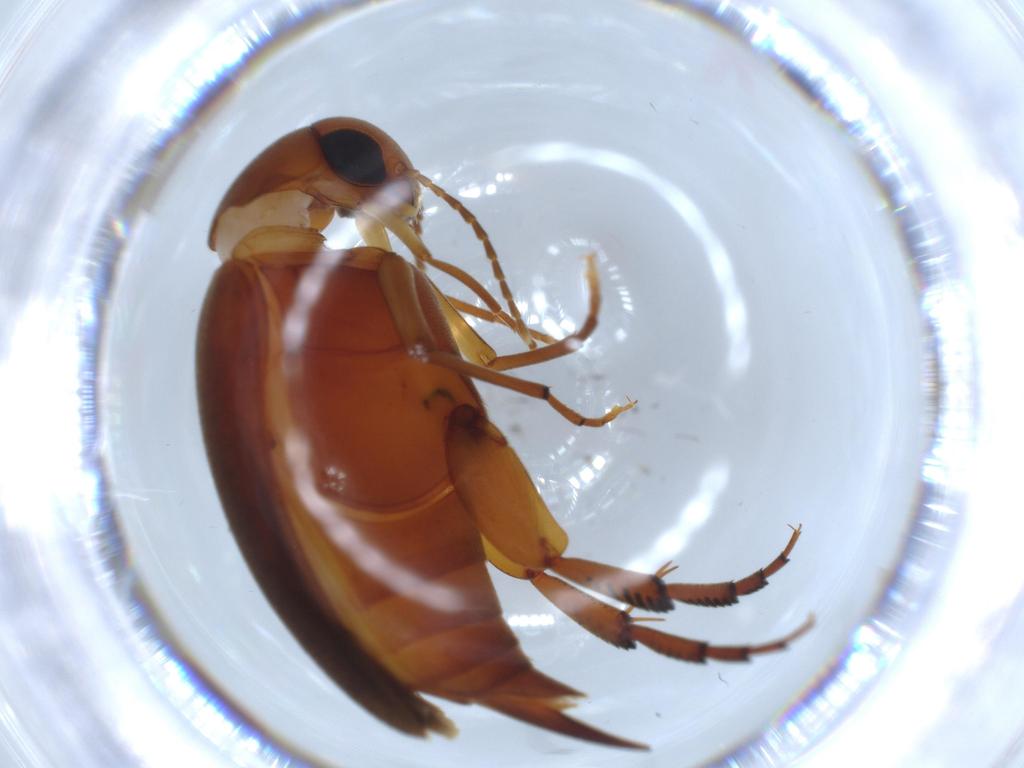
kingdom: Animalia
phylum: Arthropoda
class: Insecta
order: Coleoptera
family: Mordellidae
